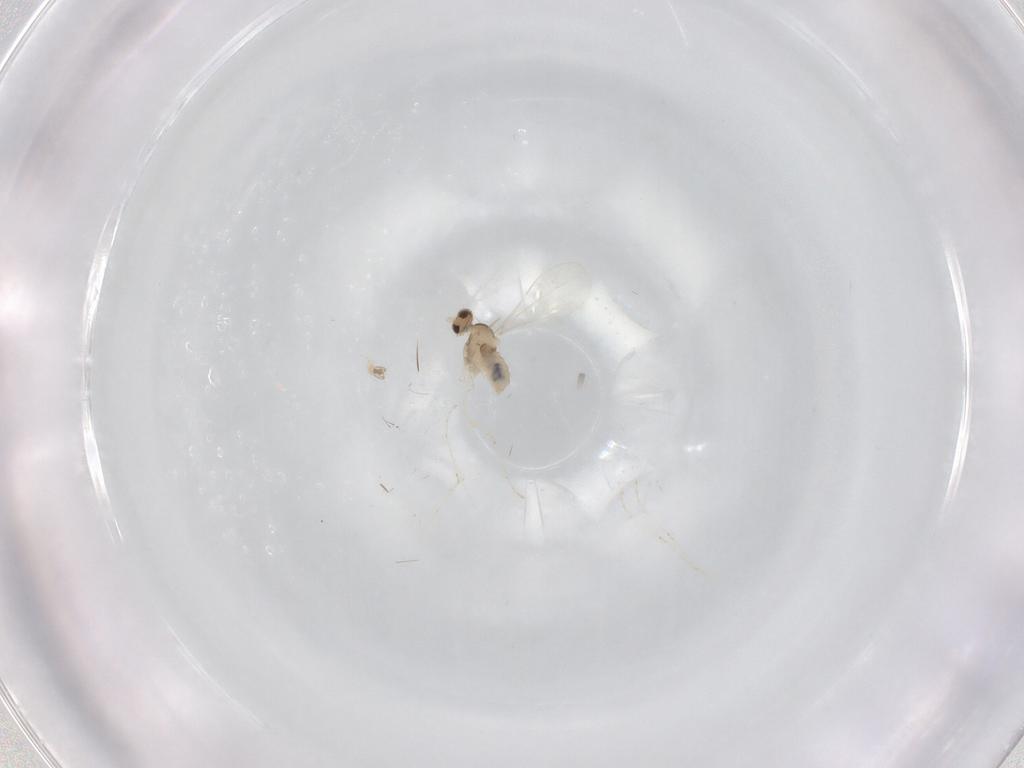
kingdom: Animalia
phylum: Arthropoda
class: Insecta
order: Diptera
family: Cecidomyiidae
